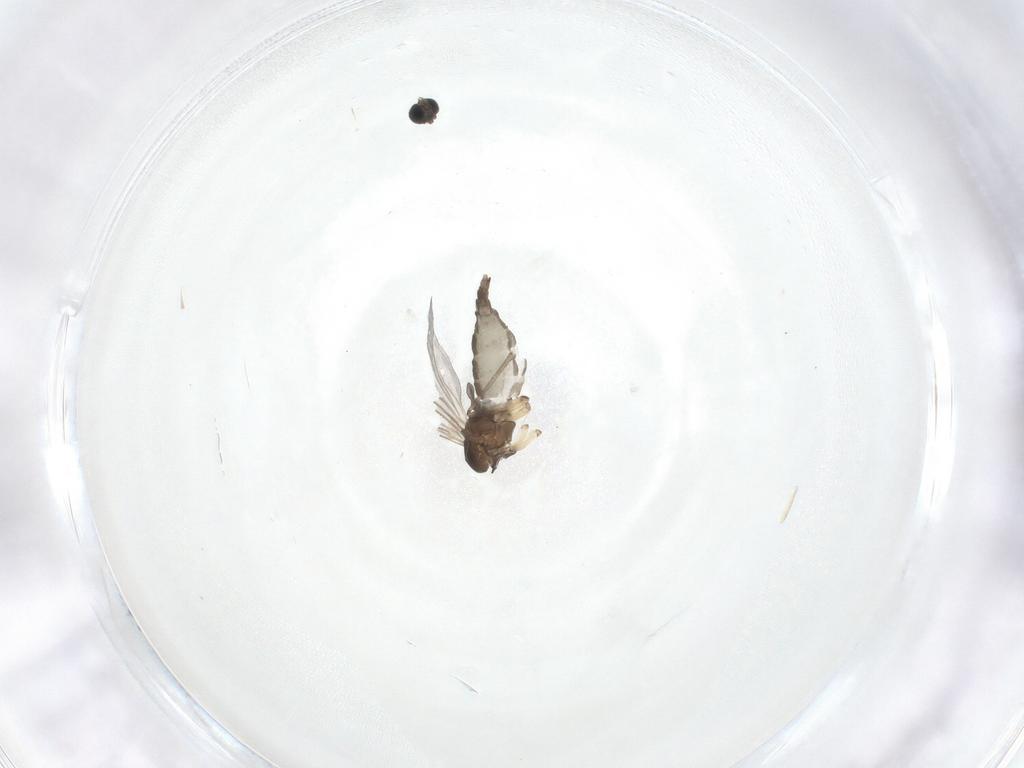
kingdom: Animalia
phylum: Arthropoda
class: Insecta
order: Diptera
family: Sciaridae
